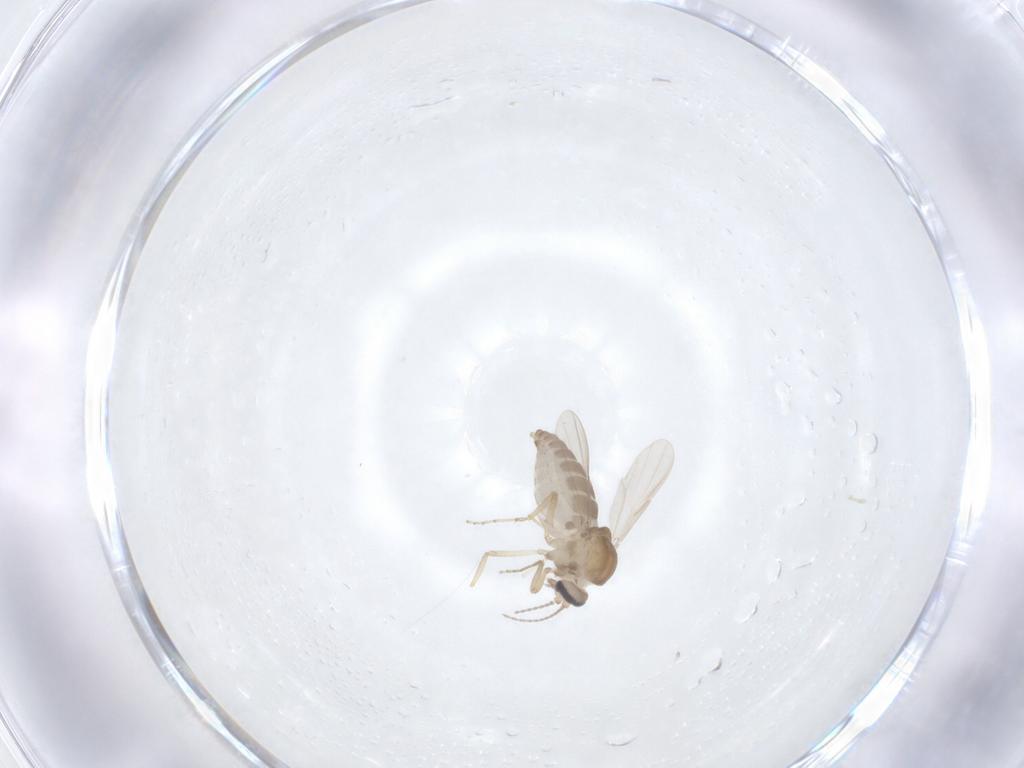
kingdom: Animalia
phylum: Arthropoda
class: Insecta
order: Diptera
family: Ceratopogonidae
